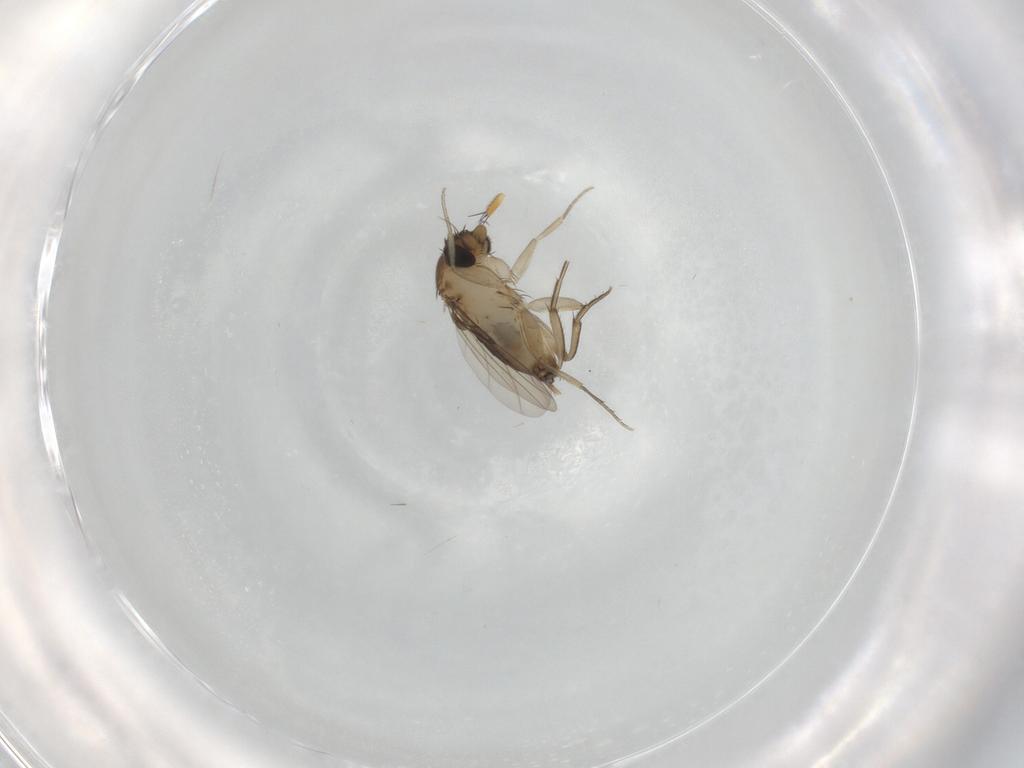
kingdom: Animalia
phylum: Arthropoda
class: Insecta
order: Diptera
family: Phoridae
